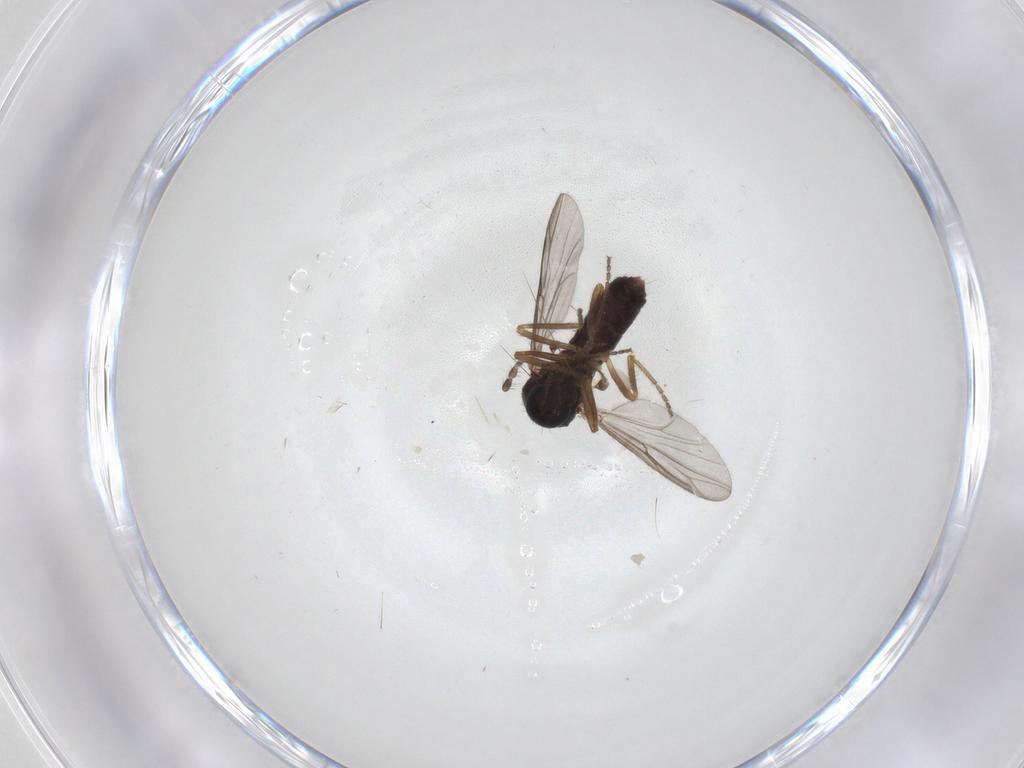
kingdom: Animalia
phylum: Arthropoda
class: Insecta
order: Diptera
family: Ceratopogonidae
